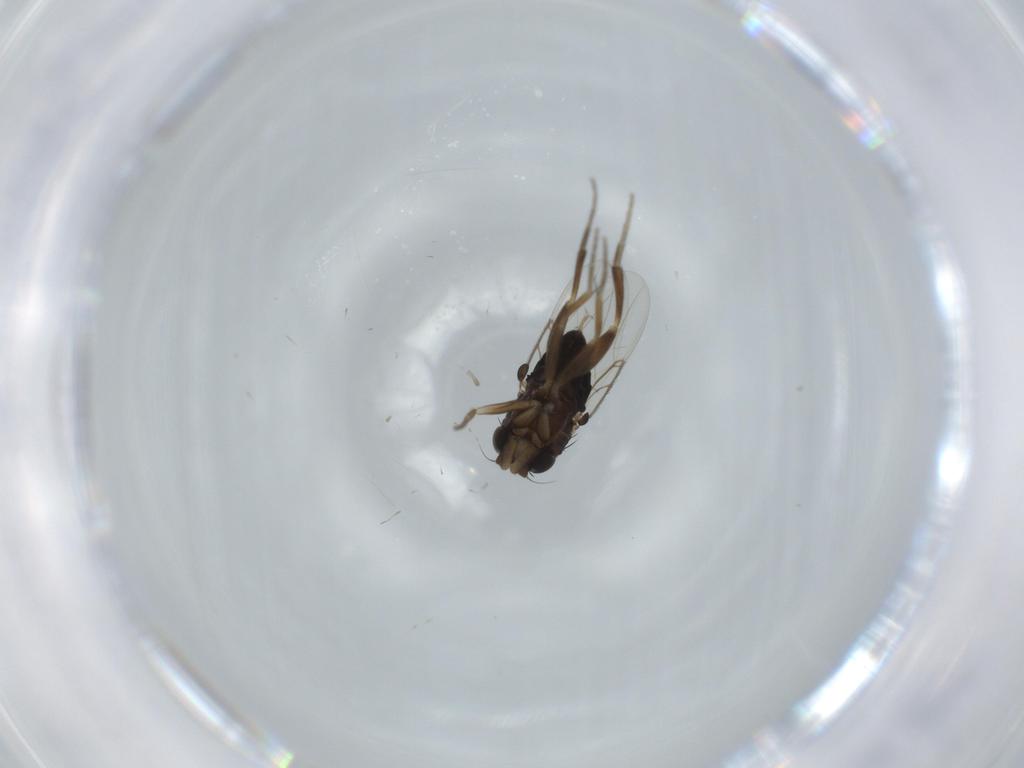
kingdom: Animalia
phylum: Arthropoda
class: Insecta
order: Diptera
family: Phoridae
